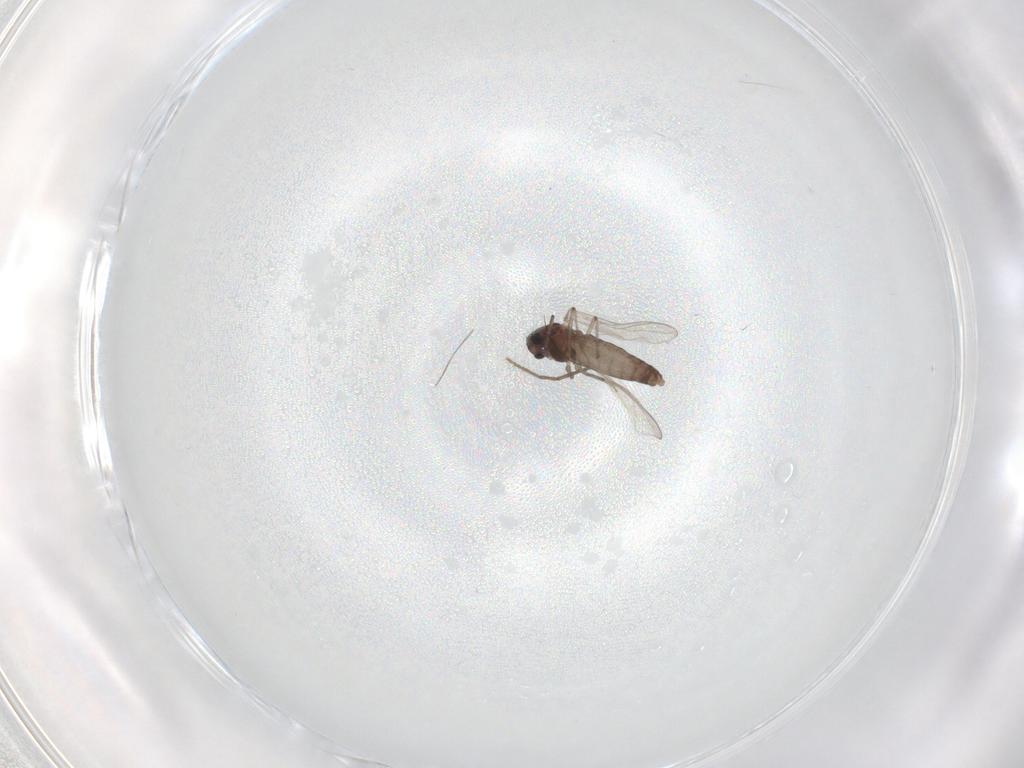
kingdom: Animalia
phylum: Arthropoda
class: Insecta
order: Diptera
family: Chironomidae
